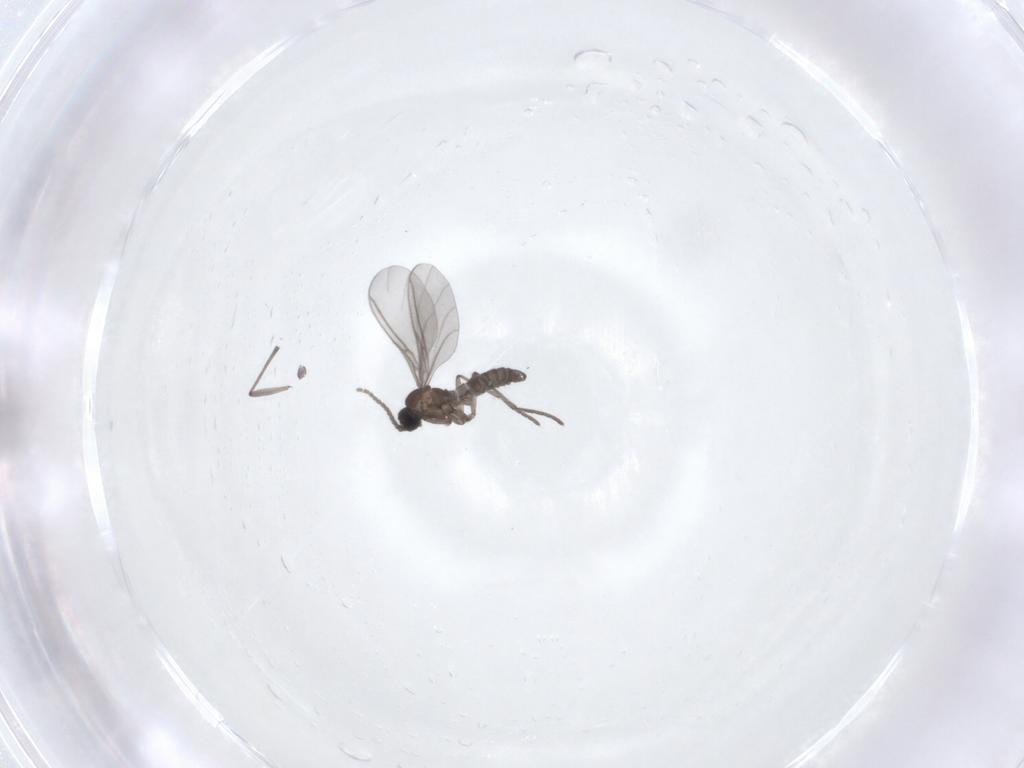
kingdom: Animalia
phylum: Arthropoda
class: Insecta
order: Diptera
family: Sciaridae
